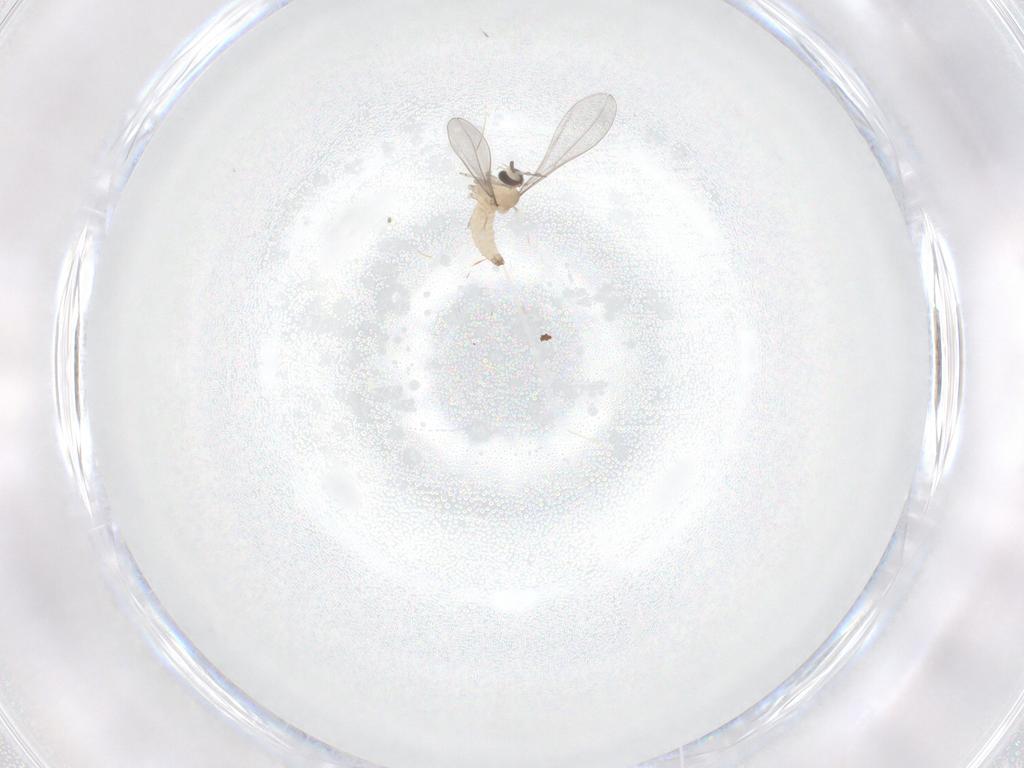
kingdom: Animalia
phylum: Arthropoda
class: Insecta
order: Diptera
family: Cecidomyiidae
